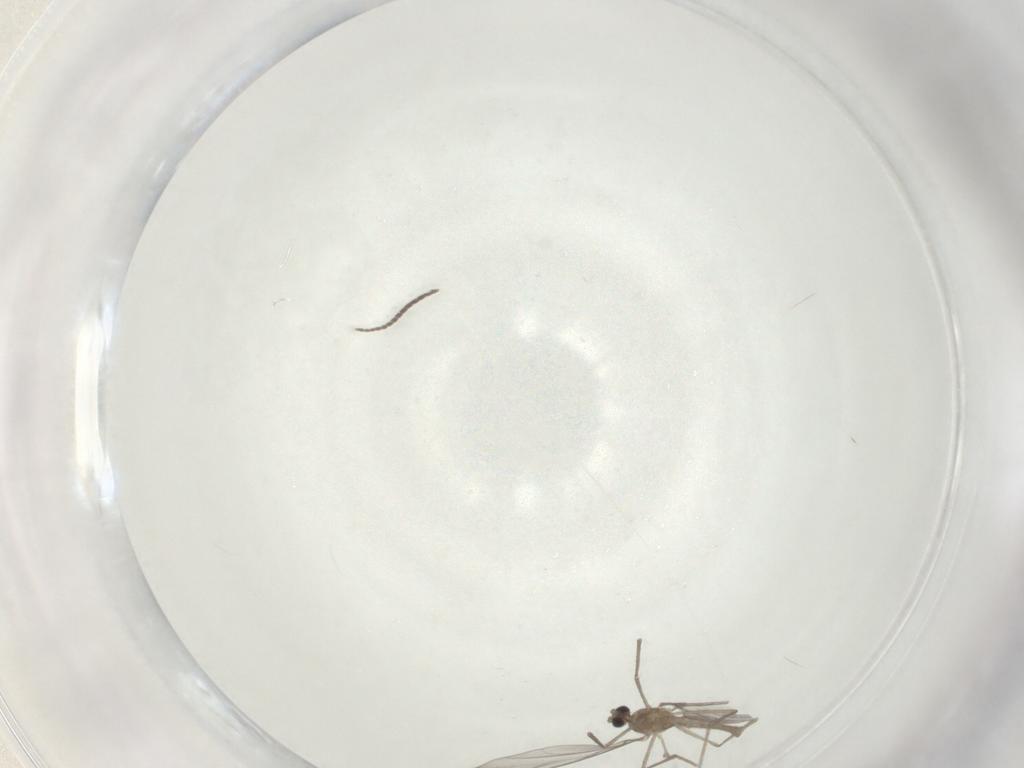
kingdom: Animalia
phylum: Arthropoda
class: Insecta
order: Diptera
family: Cecidomyiidae
